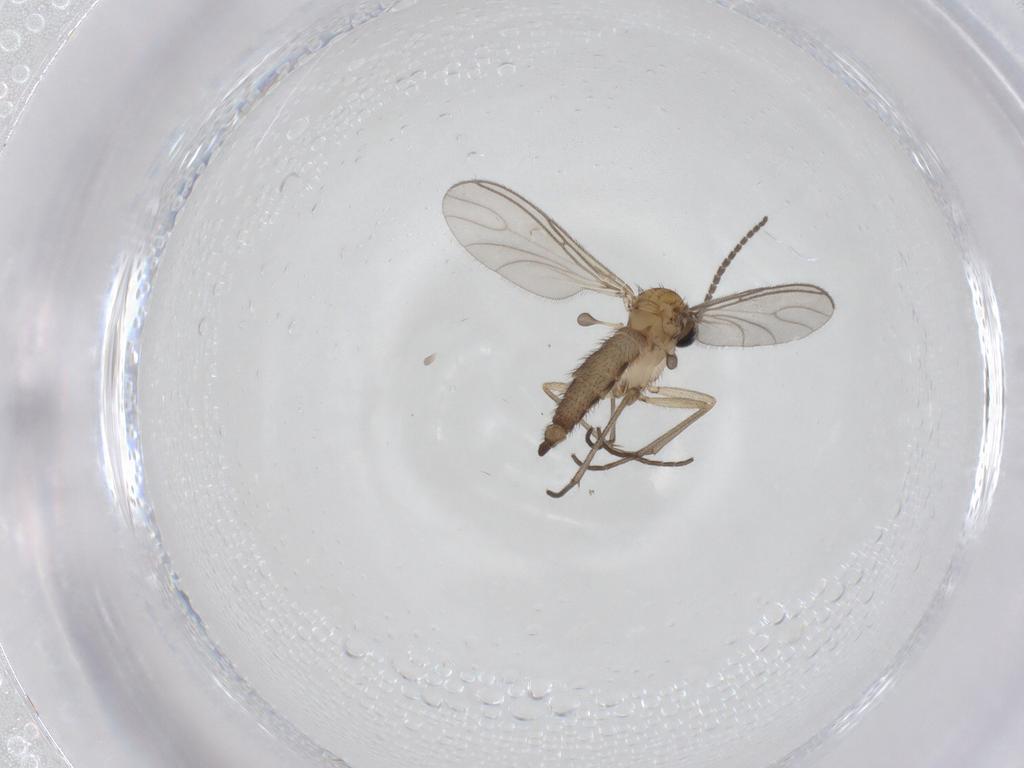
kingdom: Animalia
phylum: Arthropoda
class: Insecta
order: Diptera
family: Sciaridae
